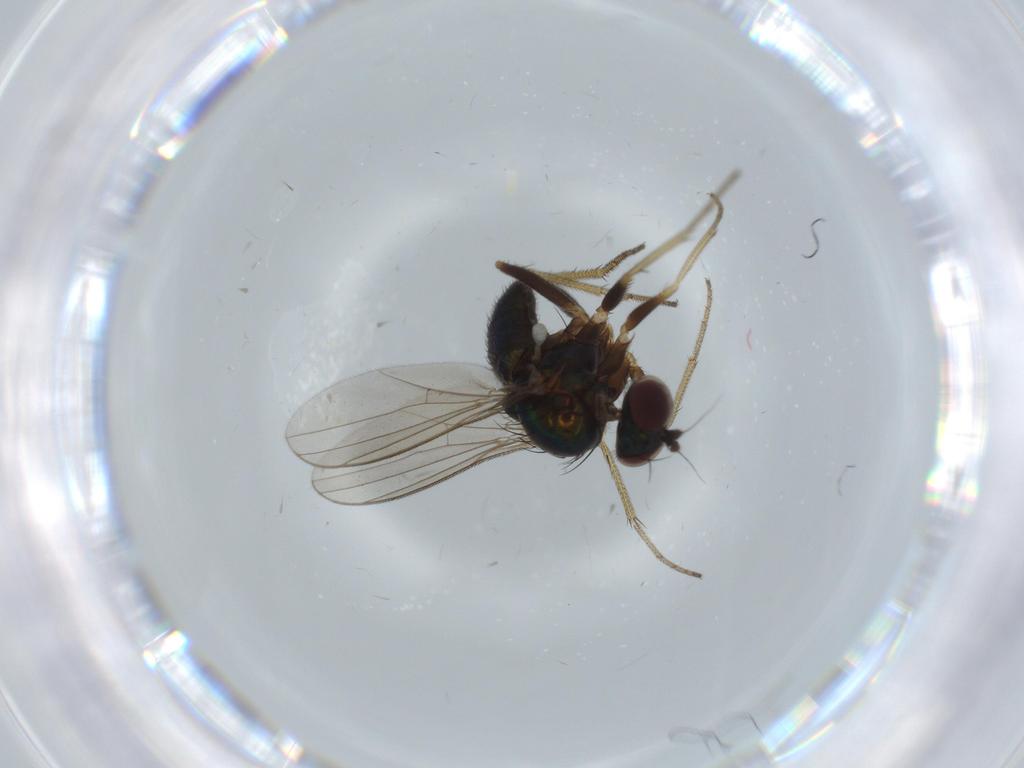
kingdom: Animalia
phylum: Arthropoda
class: Insecta
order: Diptera
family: Dolichopodidae
